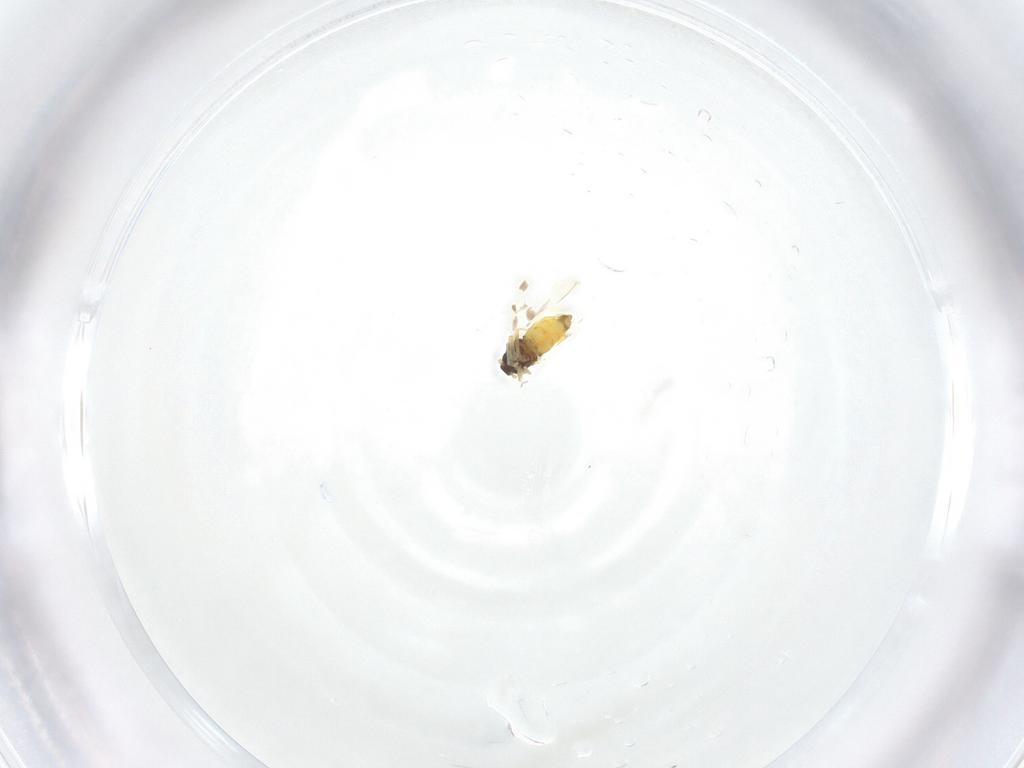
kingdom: Animalia
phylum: Arthropoda
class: Insecta
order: Hemiptera
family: Aleyrodidae
